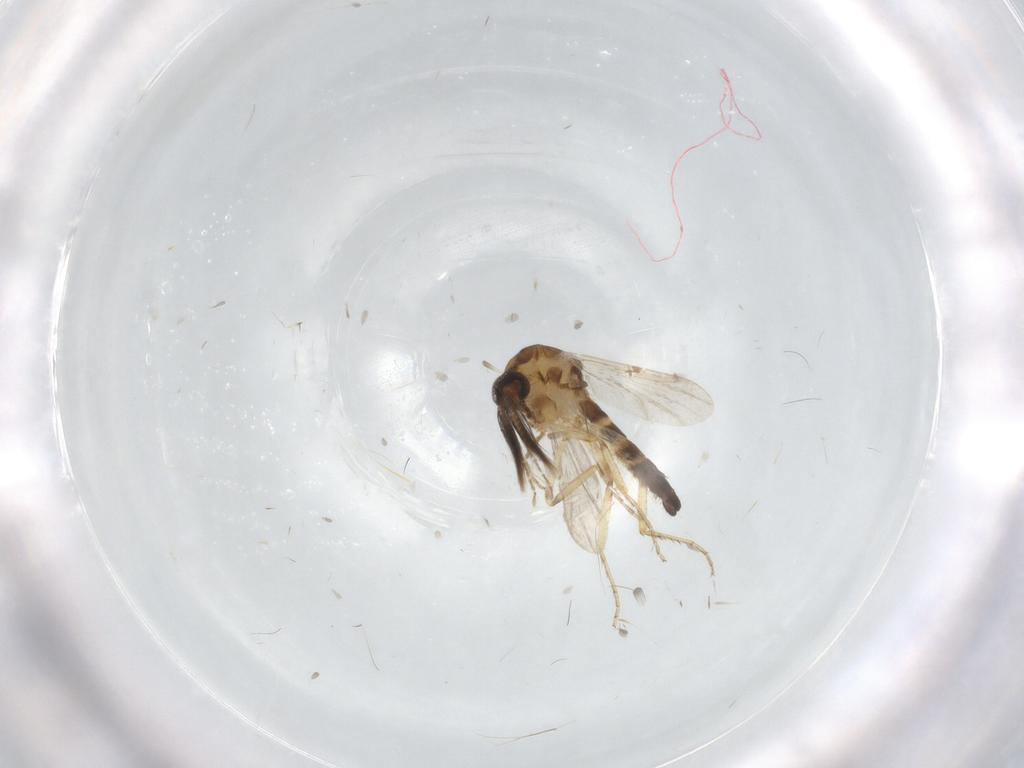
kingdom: Animalia
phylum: Arthropoda
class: Insecta
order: Diptera
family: Ceratopogonidae
